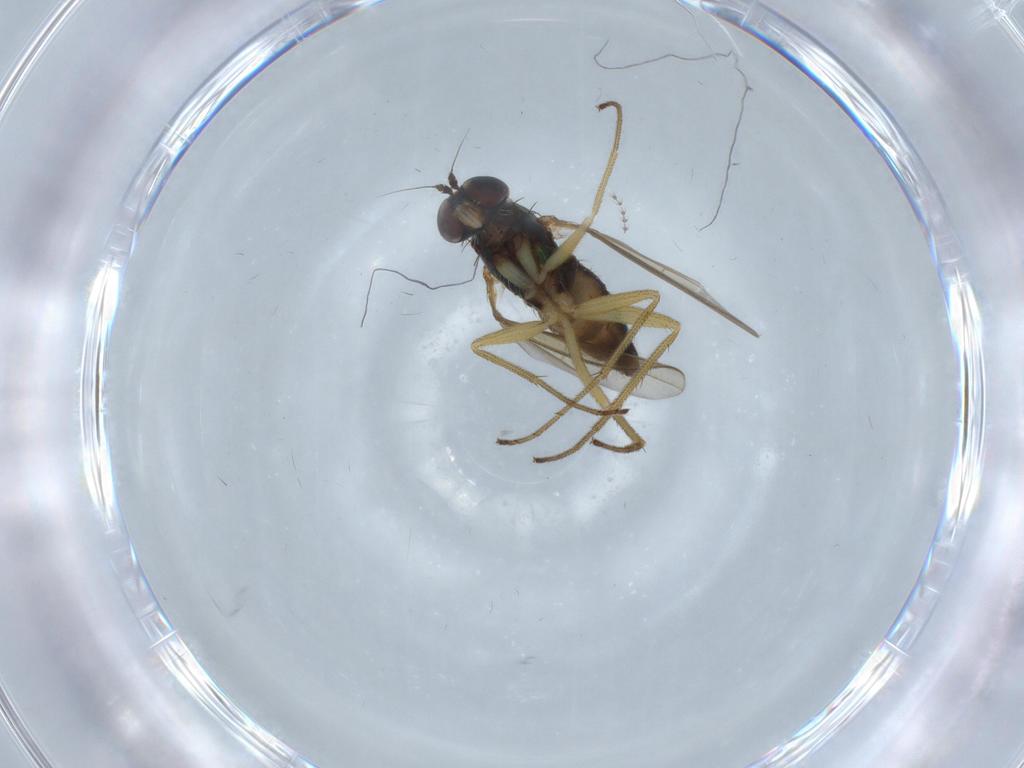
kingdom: Animalia
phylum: Arthropoda
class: Insecta
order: Diptera
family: Dolichopodidae
